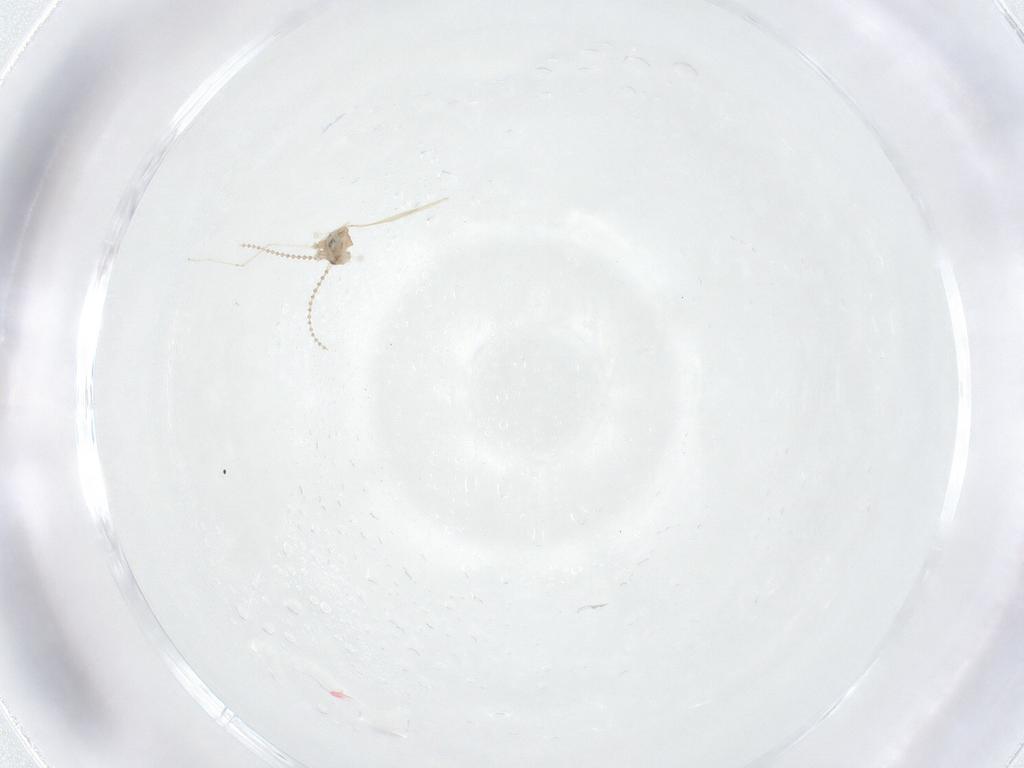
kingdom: Animalia
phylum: Arthropoda
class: Insecta
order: Diptera
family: Cecidomyiidae
